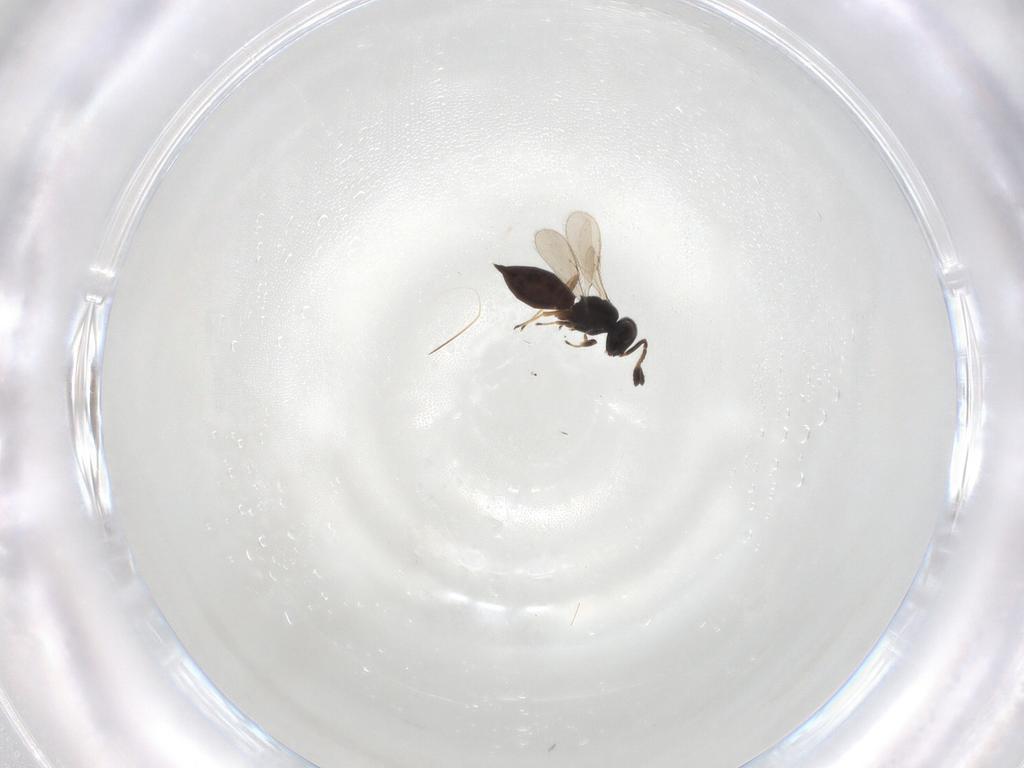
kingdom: Animalia
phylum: Arthropoda
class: Insecta
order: Hymenoptera
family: Scelionidae
